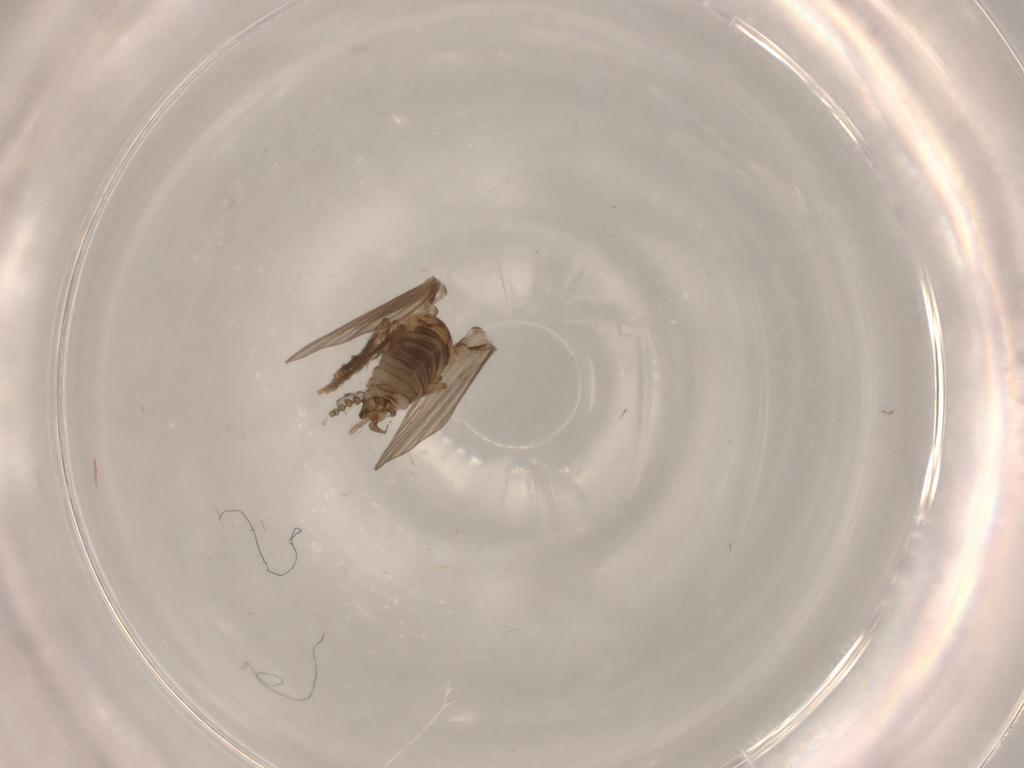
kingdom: Animalia
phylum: Arthropoda
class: Insecta
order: Diptera
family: Psychodidae
